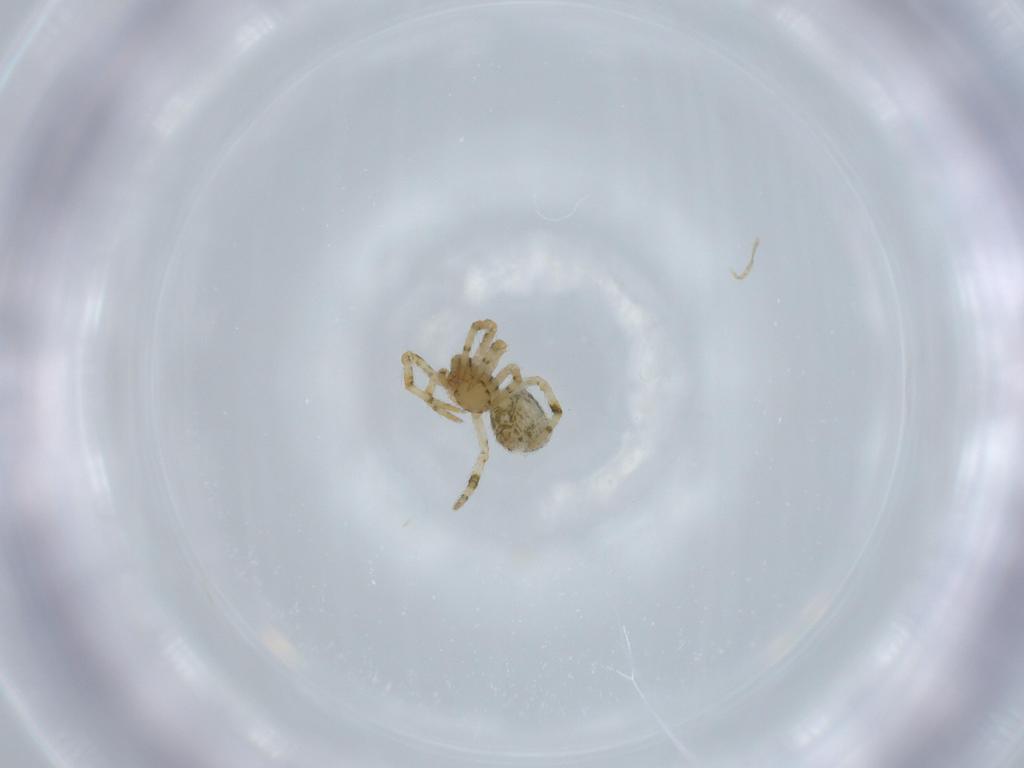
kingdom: Animalia
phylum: Arthropoda
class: Arachnida
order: Araneae
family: Theridiidae
